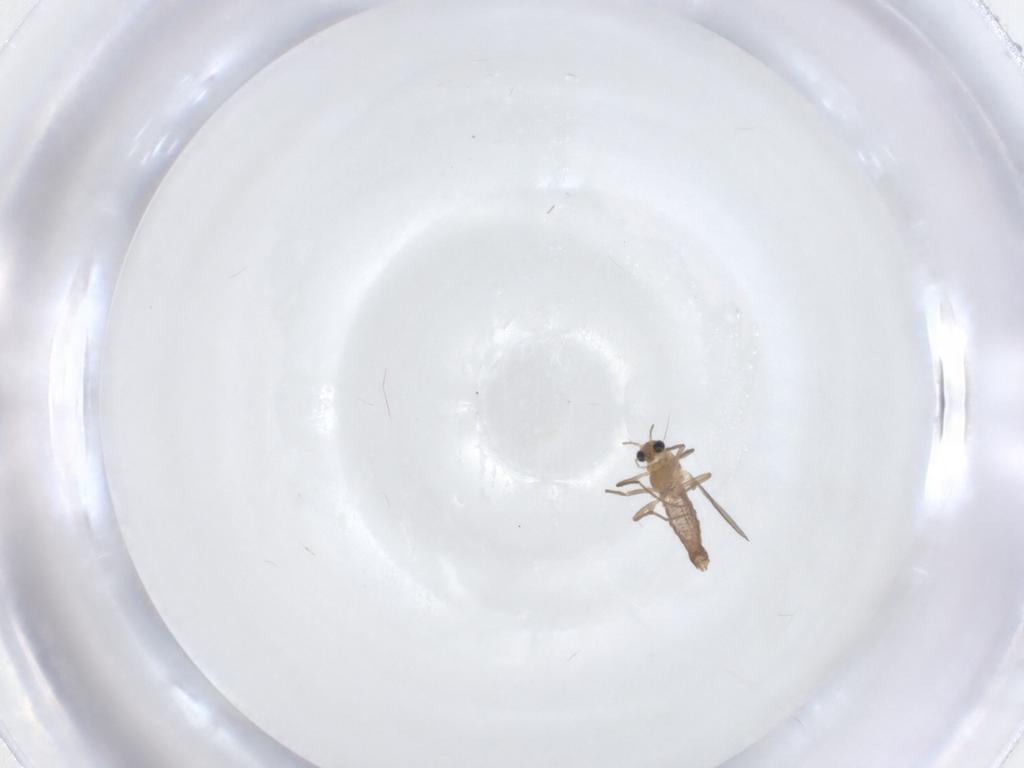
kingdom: Animalia
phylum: Arthropoda
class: Insecta
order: Diptera
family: Chironomidae
